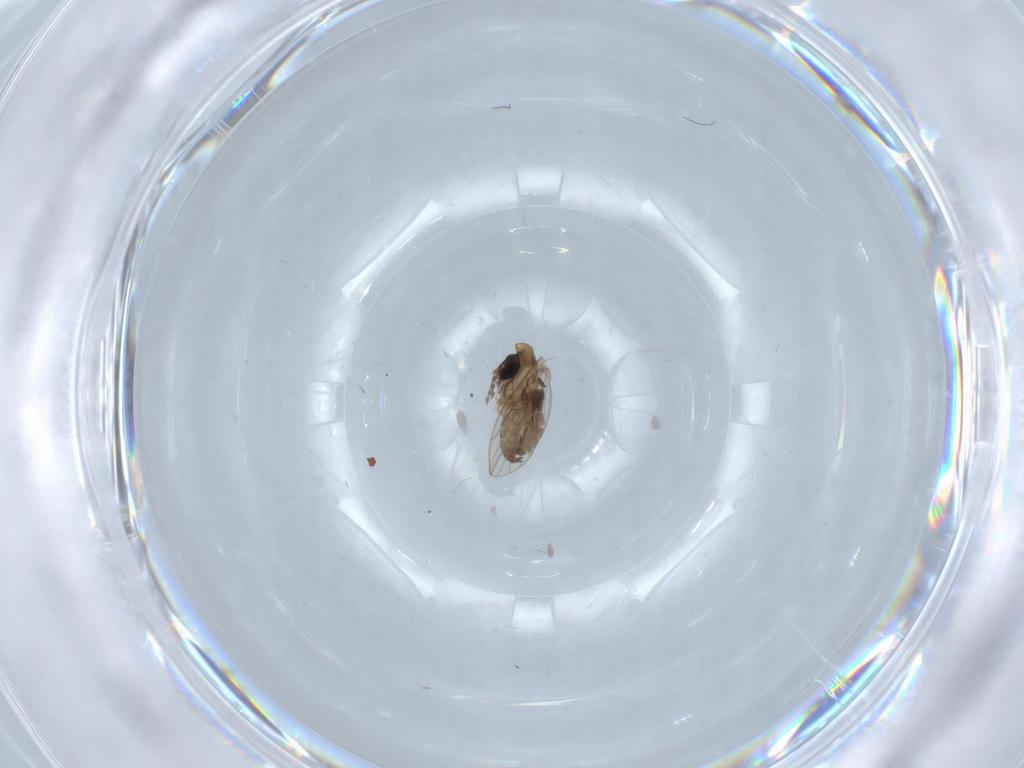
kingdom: Animalia
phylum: Arthropoda
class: Insecta
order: Diptera
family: Psychodidae
